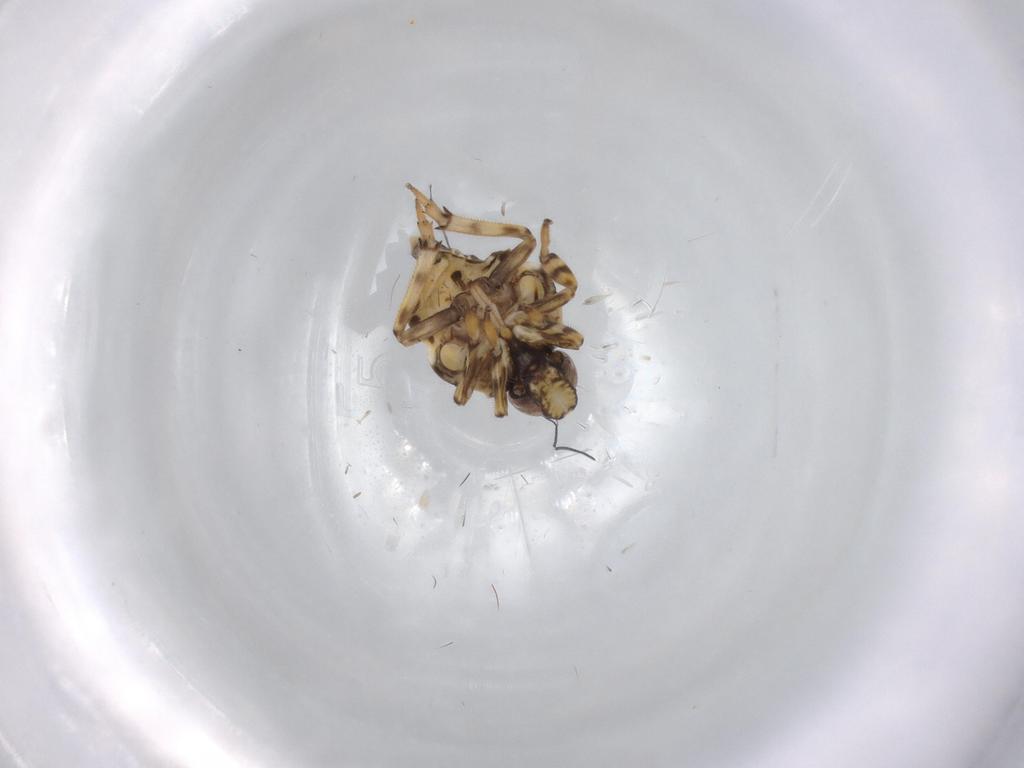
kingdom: Animalia
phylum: Arthropoda
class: Insecta
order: Hemiptera
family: Issidae
